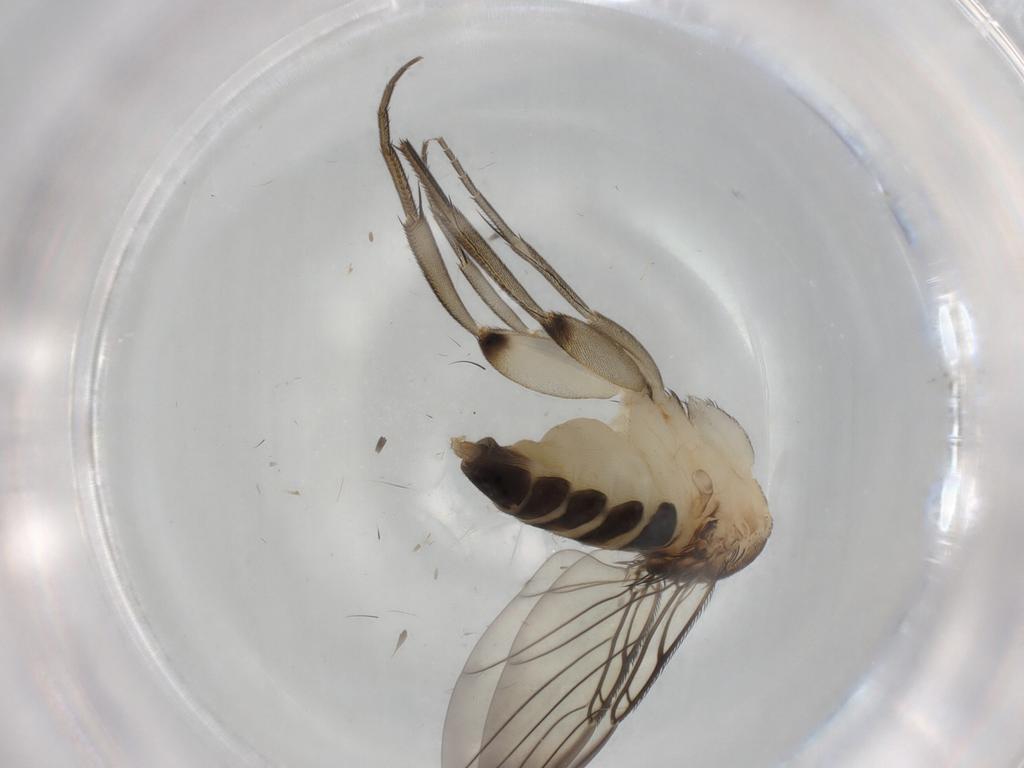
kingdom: Animalia
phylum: Arthropoda
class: Insecta
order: Diptera
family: Phoridae
